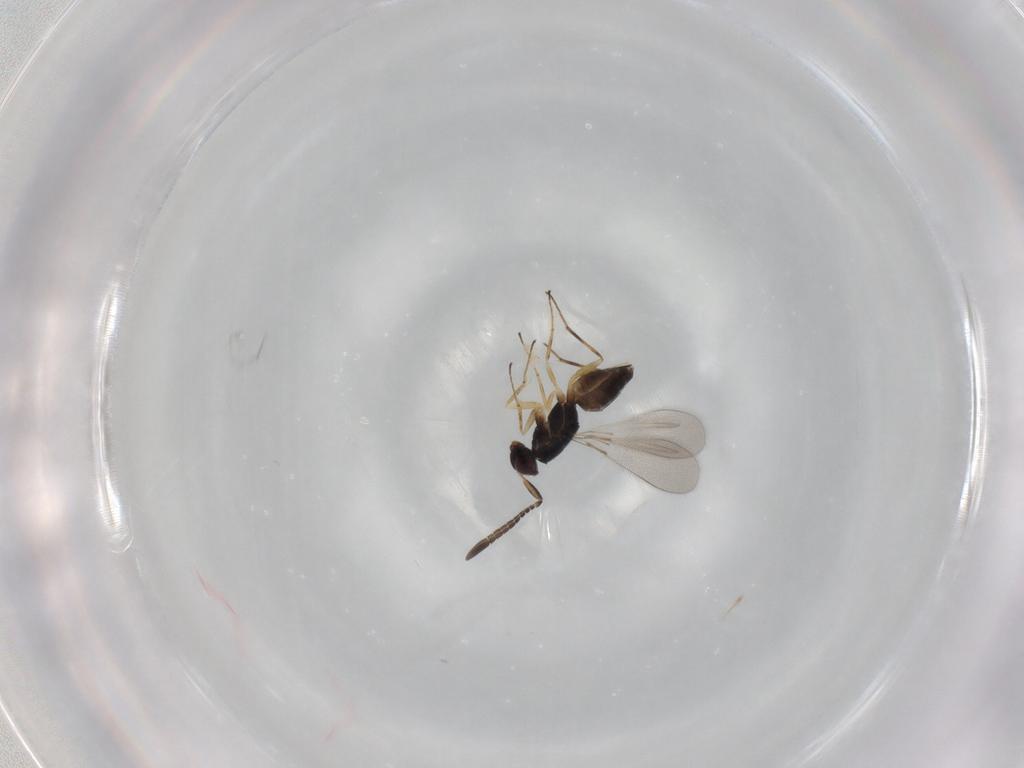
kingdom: Animalia
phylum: Arthropoda
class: Insecta
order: Hymenoptera
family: Mymaridae
